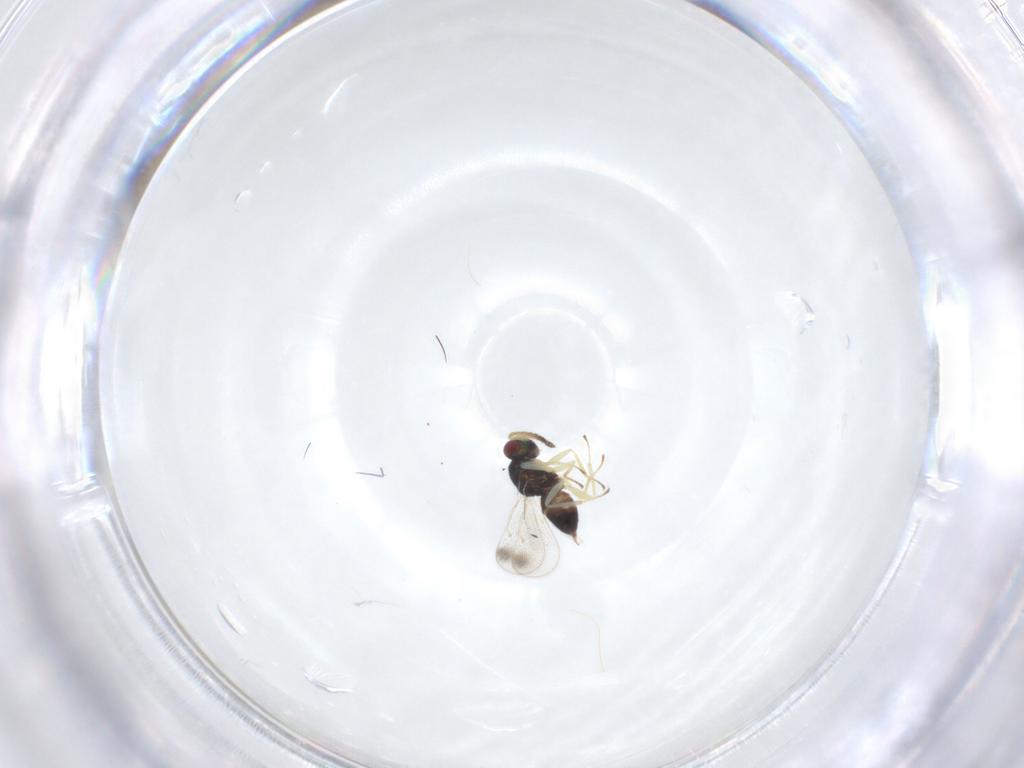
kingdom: Animalia
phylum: Arthropoda
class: Insecta
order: Hymenoptera
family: Eulophidae
